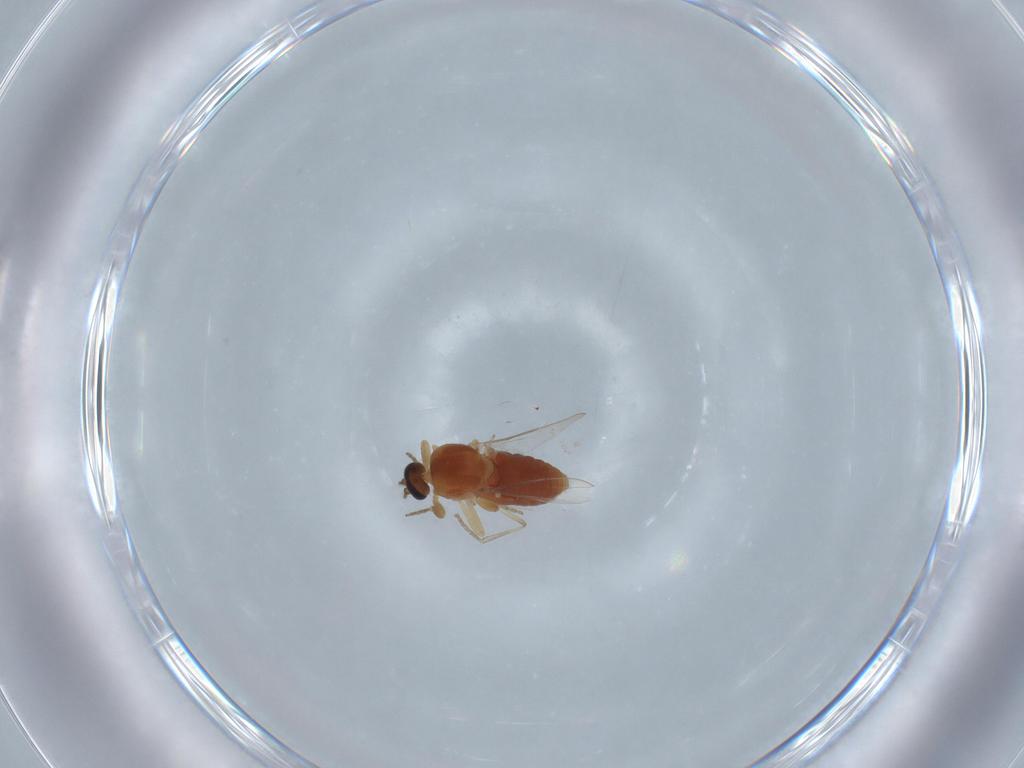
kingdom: Animalia
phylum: Arthropoda
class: Insecta
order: Diptera
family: Ceratopogonidae
